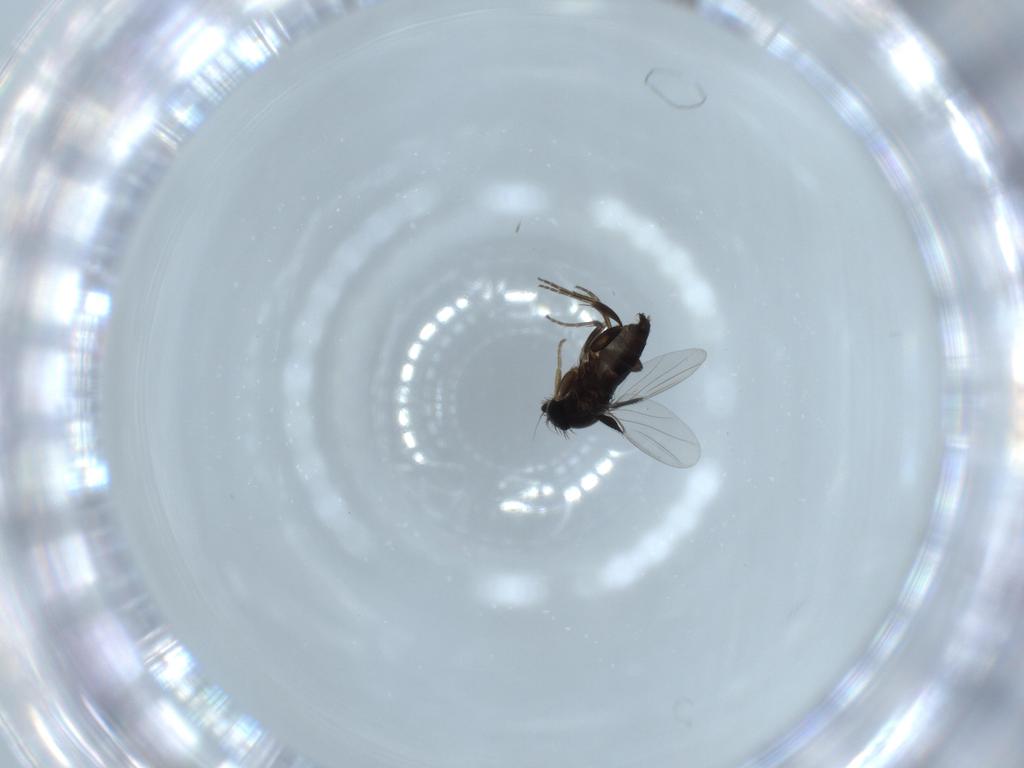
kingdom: Animalia
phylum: Arthropoda
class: Insecta
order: Diptera
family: Phoridae
